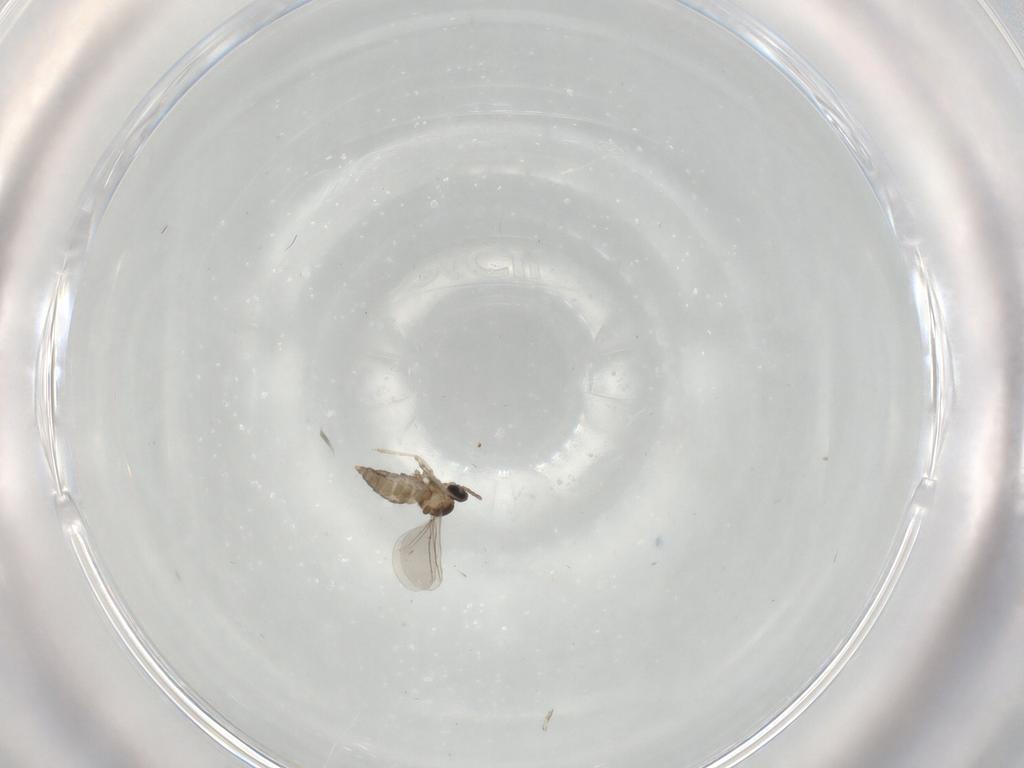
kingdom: Animalia
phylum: Arthropoda
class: Insecta
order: Diptera
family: Cecidomyiidae
